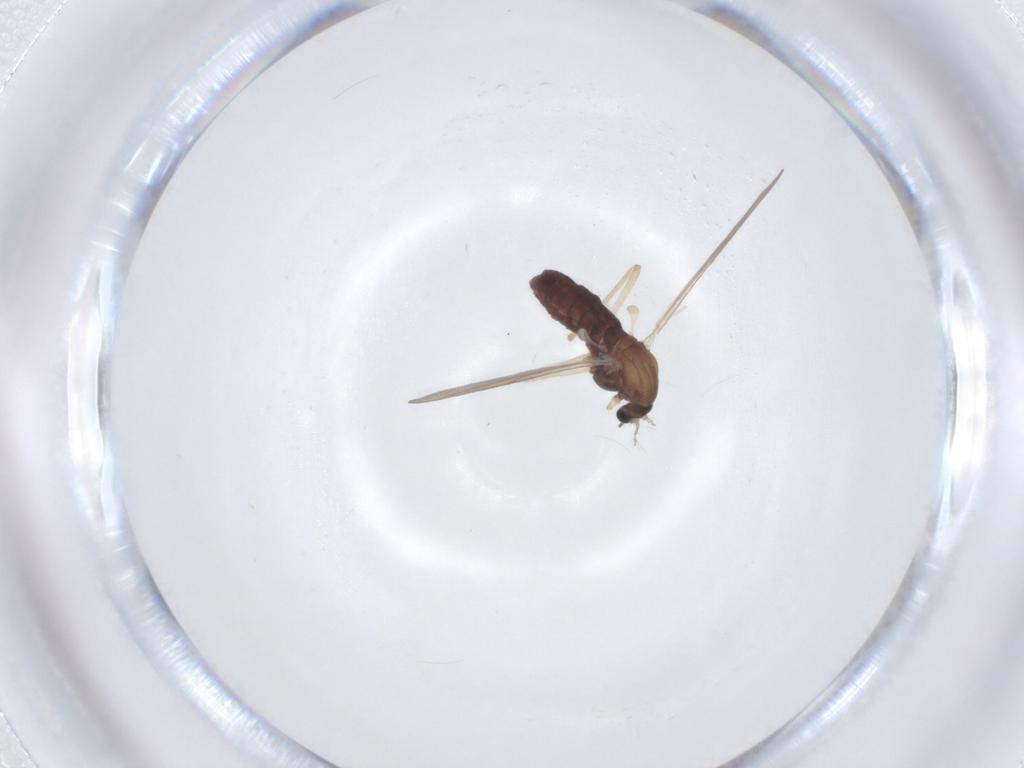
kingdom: Animalia
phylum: Arthropoda
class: Insecta
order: Diptera
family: Chironomidae
